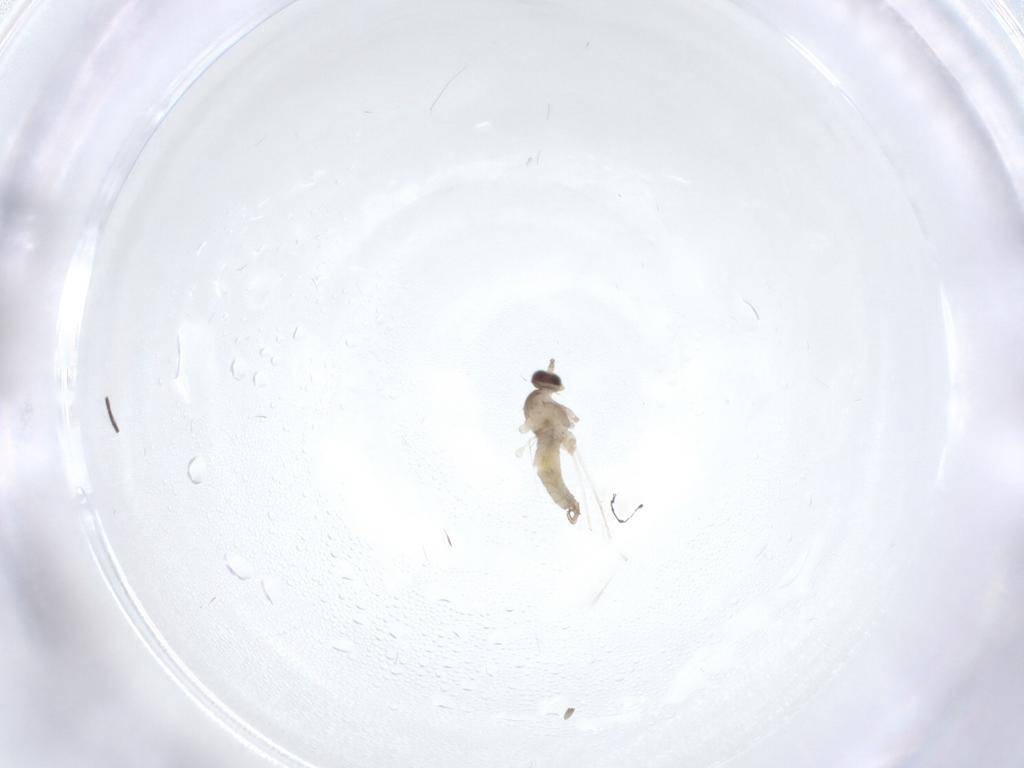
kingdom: Animalia
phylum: Arthropoda
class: Insecta
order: Diptera
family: Cecidomyiidae
